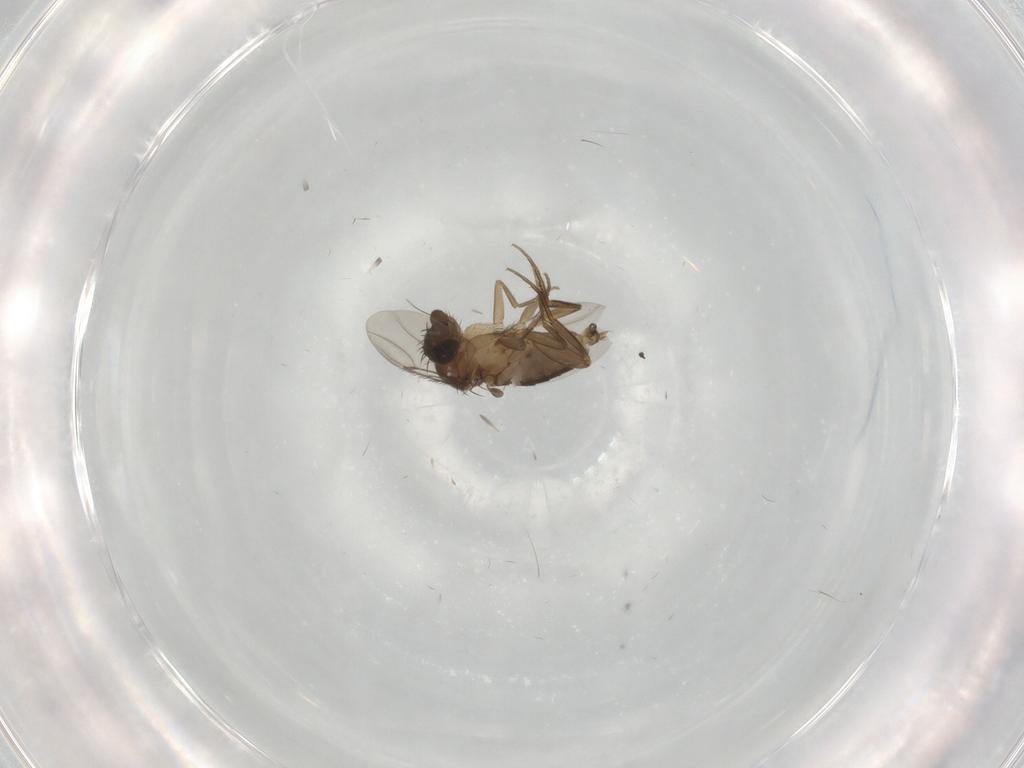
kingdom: Animalia
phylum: Arthropoda
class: Insecta
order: Diptera
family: Phoridae
